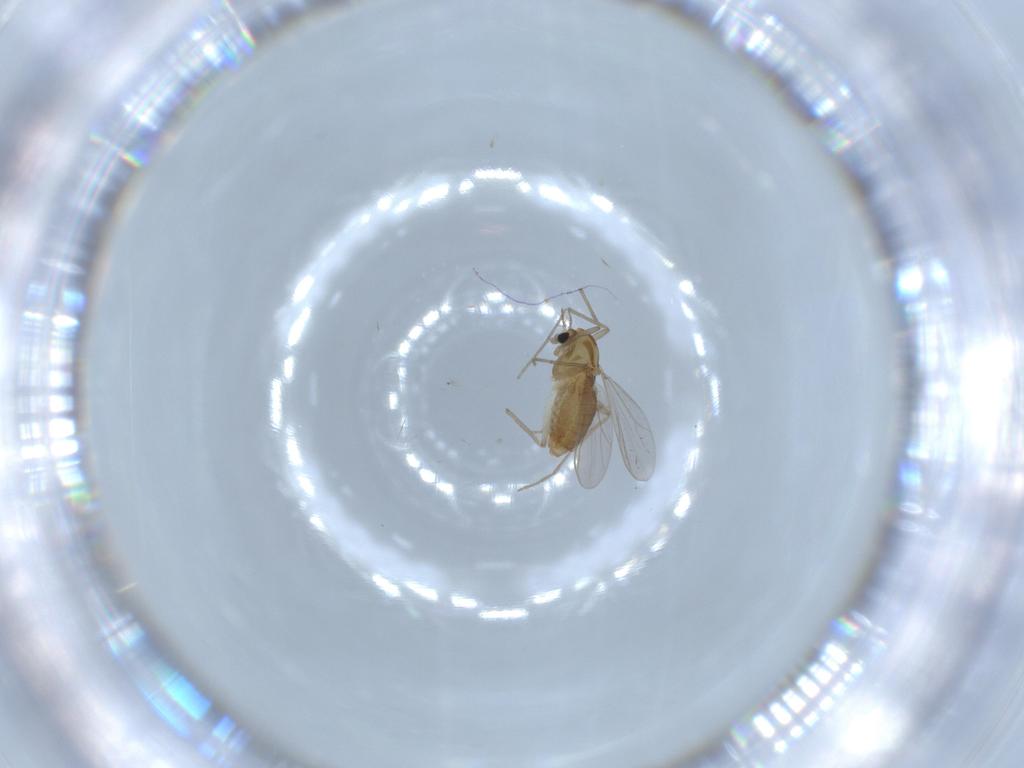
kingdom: Animalia
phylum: Arthropoda
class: Insecta
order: Diptera
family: Chironomidae
